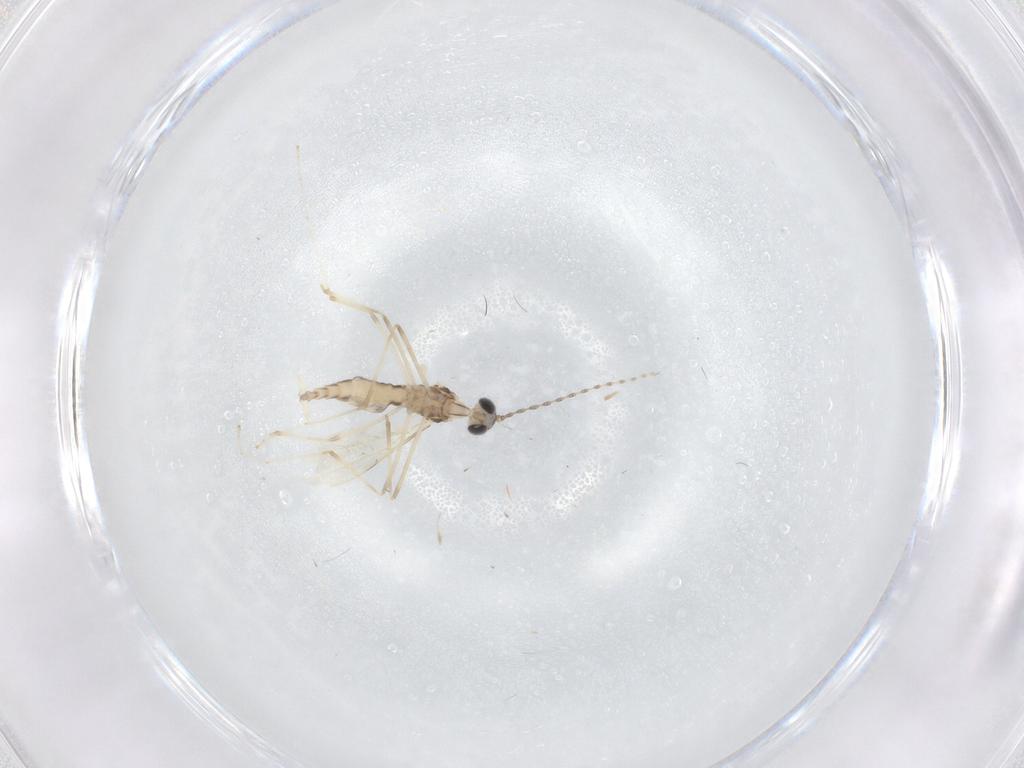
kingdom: Animalia
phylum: Arthropoda
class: Insecta
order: Diptera
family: Cecidomyiidae
